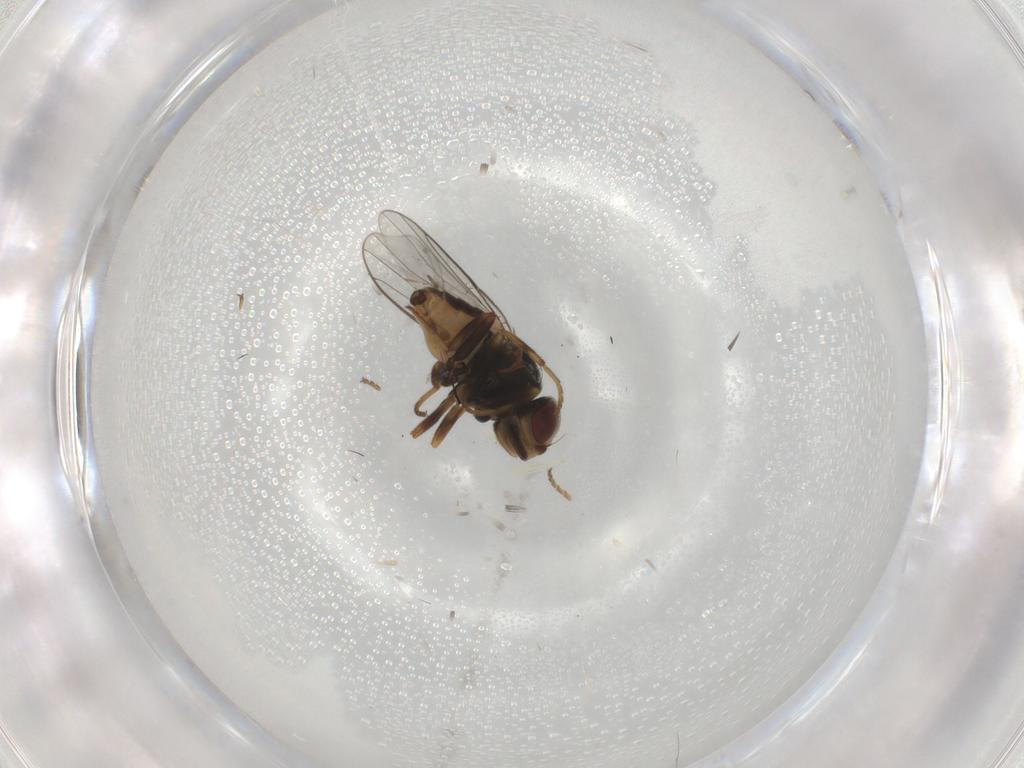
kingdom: Animalia
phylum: Arthropoda
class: Insecta
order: Diptera
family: Chloropidae
